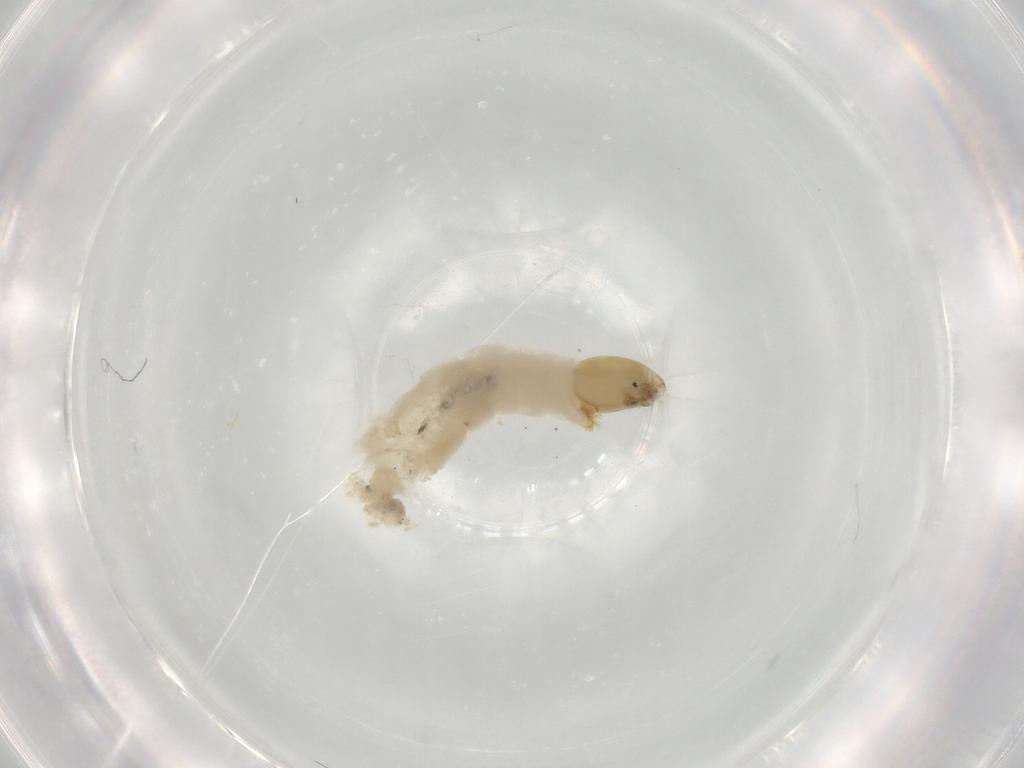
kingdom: Animalia
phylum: Arthropoda
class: Insecta
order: Diptera
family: Chironomidae
